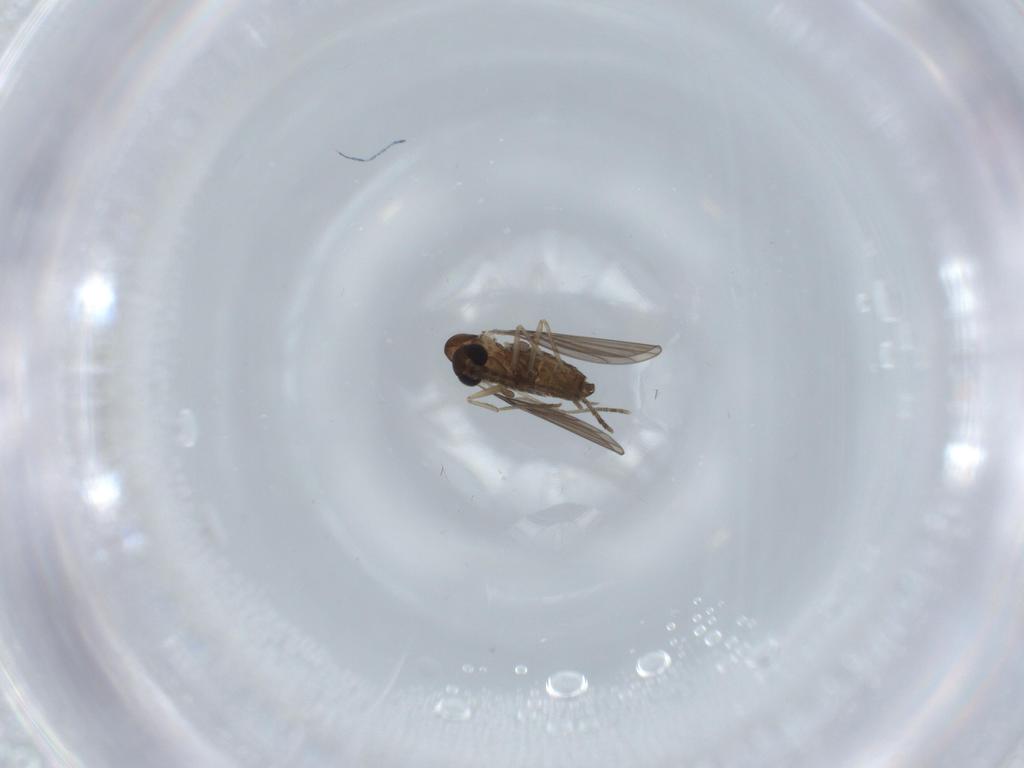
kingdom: Animalia
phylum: Arthropoda
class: Insecta
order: Diptera
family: Psychodidae
